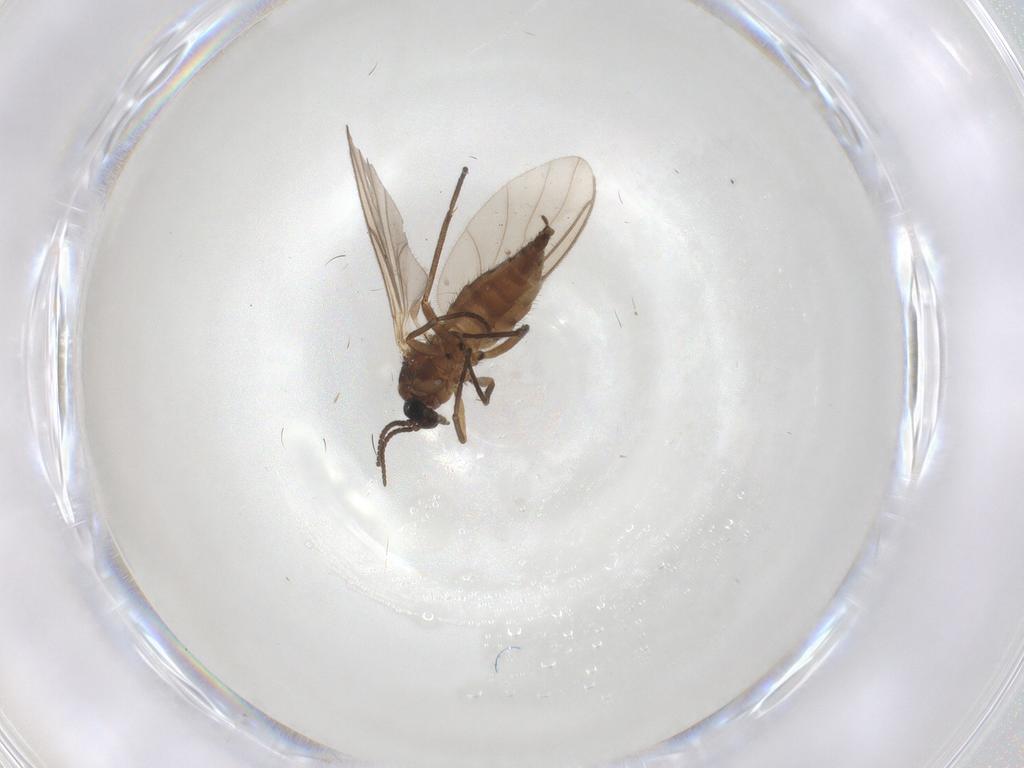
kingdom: Animalia
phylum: Arthropoda
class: Insecta
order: Diptera
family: Sciaridae
